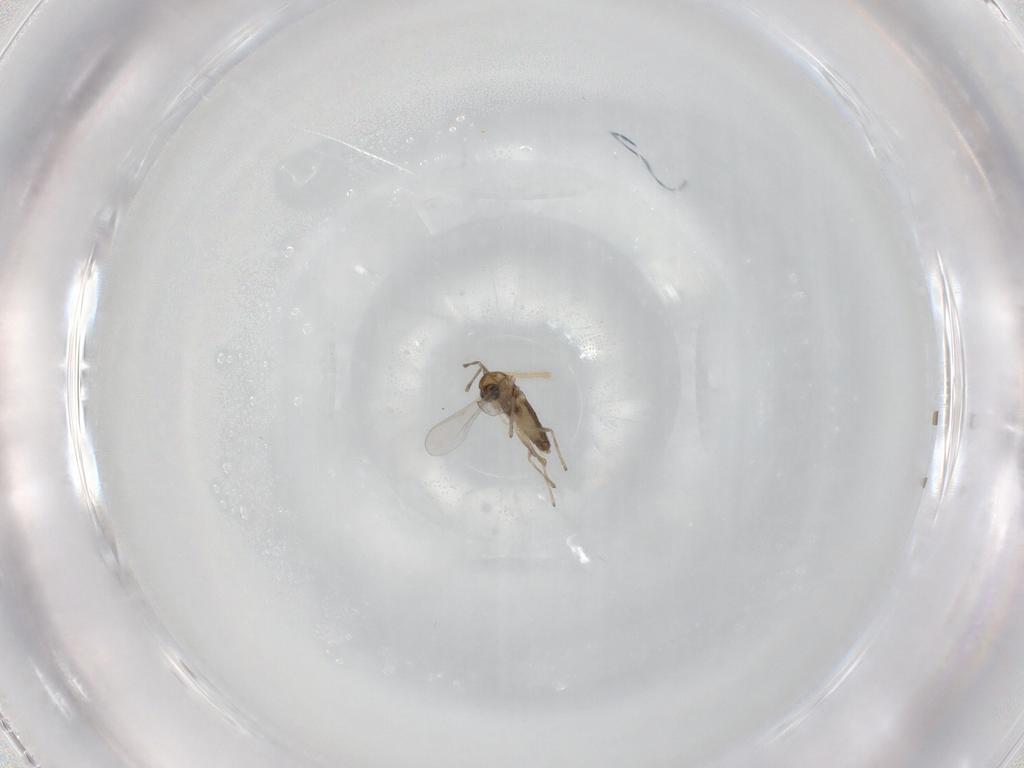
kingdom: Animalia
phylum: Arthropoda
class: Insecta
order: Diptera
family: Chironomidae
